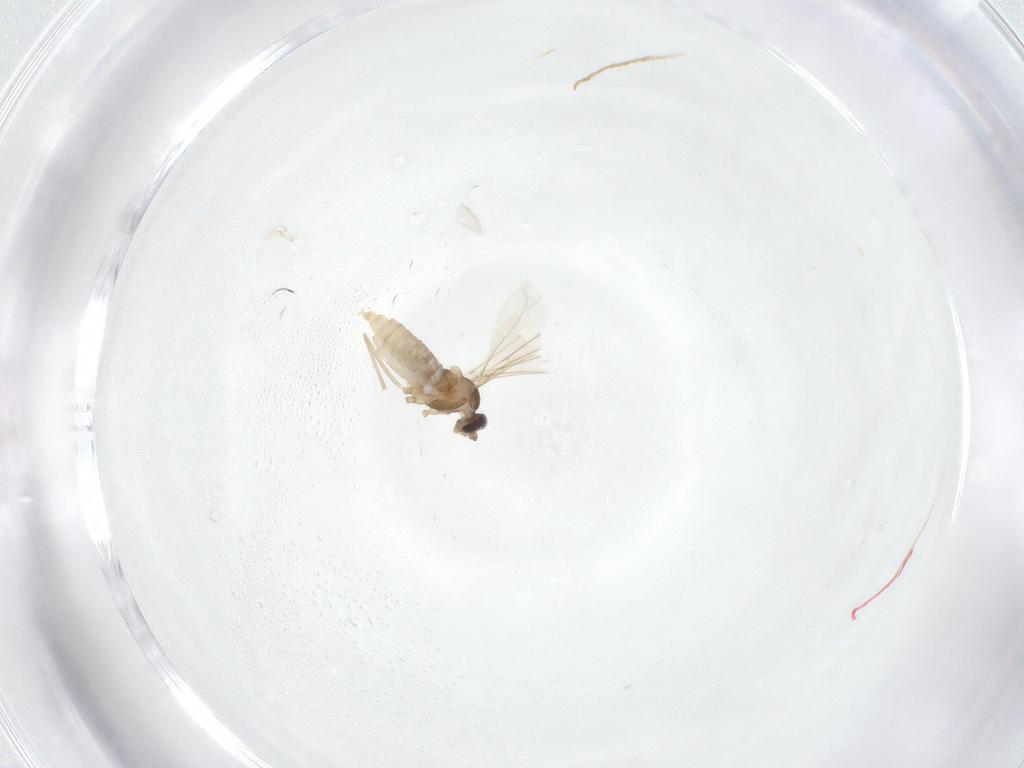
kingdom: Animalia
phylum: Arthropoda
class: Insecta
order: Diptera
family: Cecidomyiidae
